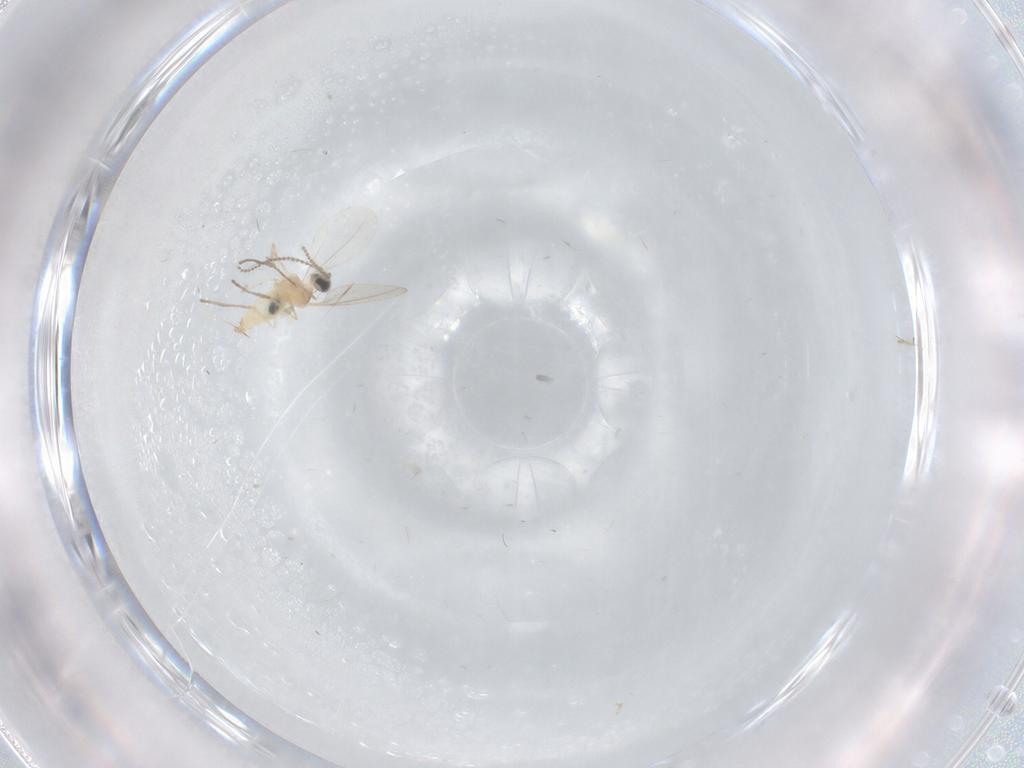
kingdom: Animalia
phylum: Arthropoda
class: Insecta
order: Diptera
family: Cecidomyiidae
